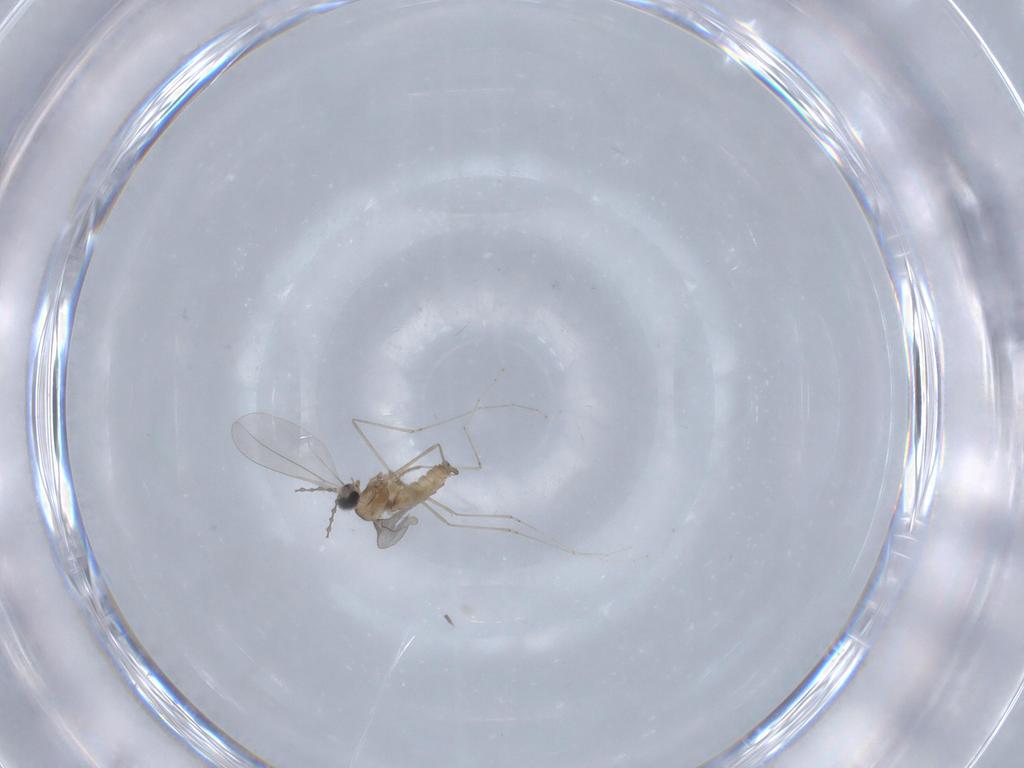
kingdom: Animalia
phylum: Arthropoda
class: Insecta
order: Diptera
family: Cecidomyiidae
